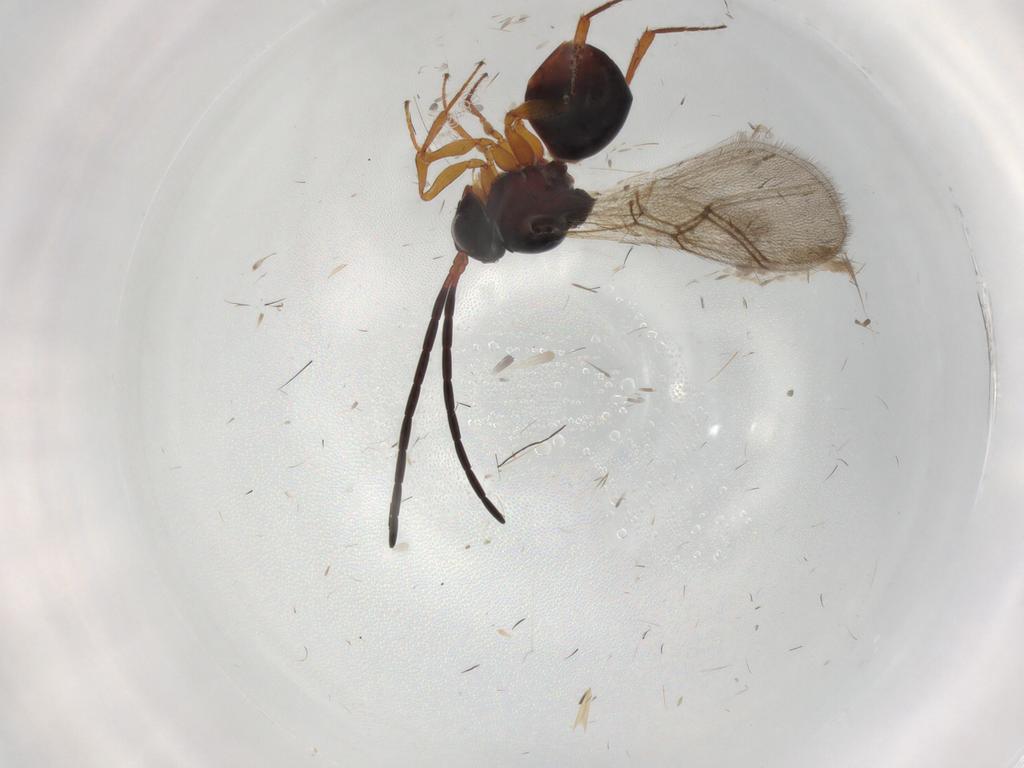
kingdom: Animalia
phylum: Arthropoda
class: Insecta
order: Hymenoptera
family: Figitidae
